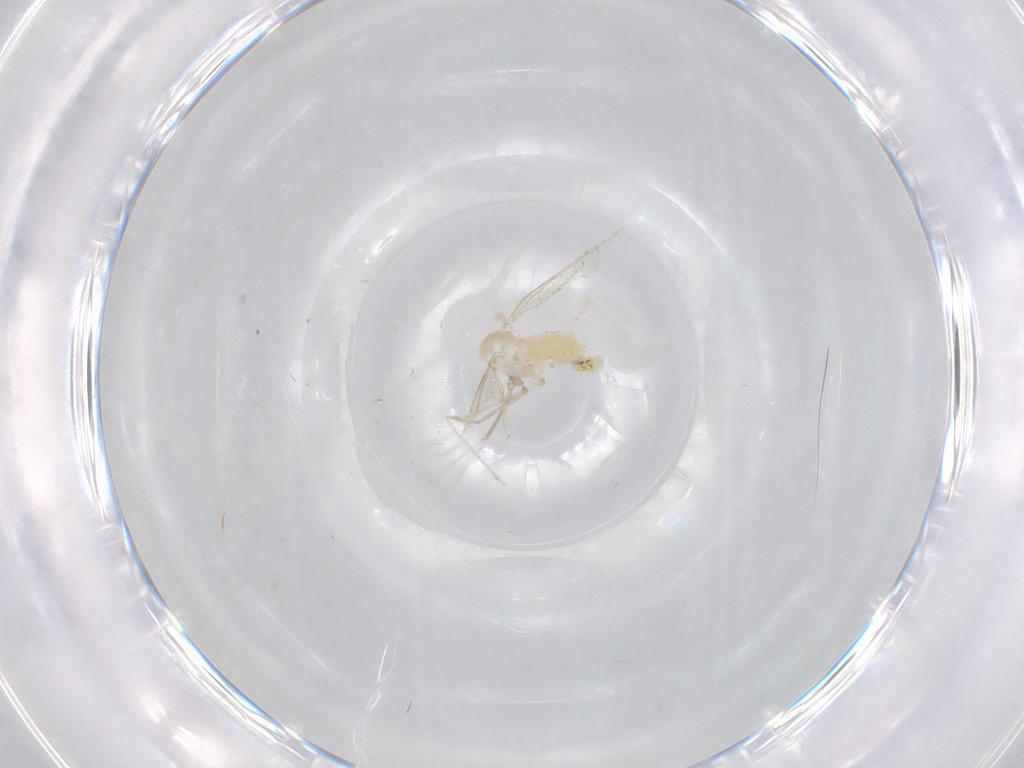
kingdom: Animalia
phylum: Arthropoda
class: Insecta
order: Diptera
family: Cecidomyiidae
